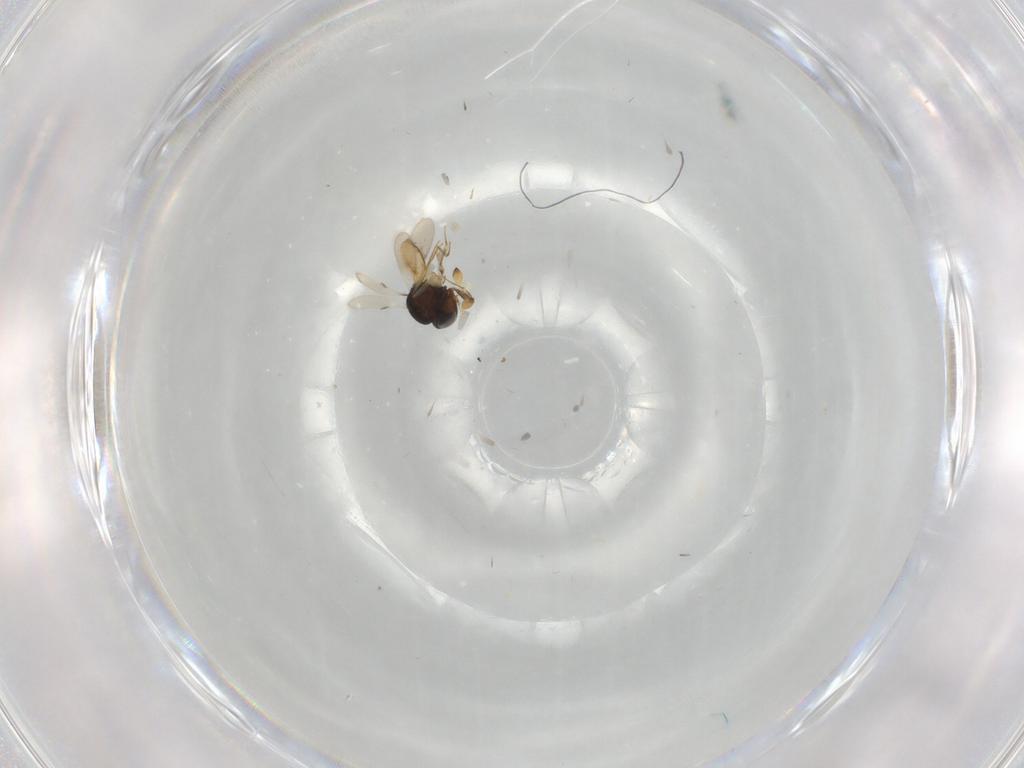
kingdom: Animalia
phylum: Arthropoda
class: Insecta
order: Hymenoptera
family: Scelionidae
